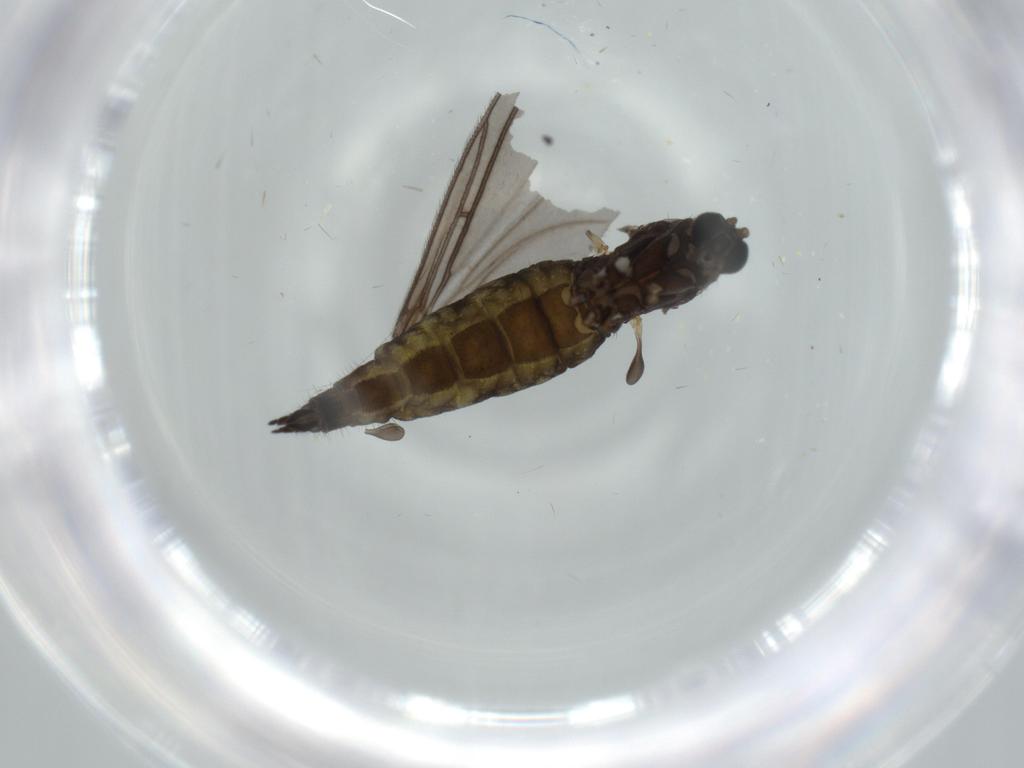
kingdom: Animalia
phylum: Arthropoda
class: Insecta
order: Diptera
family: Sciaridae
